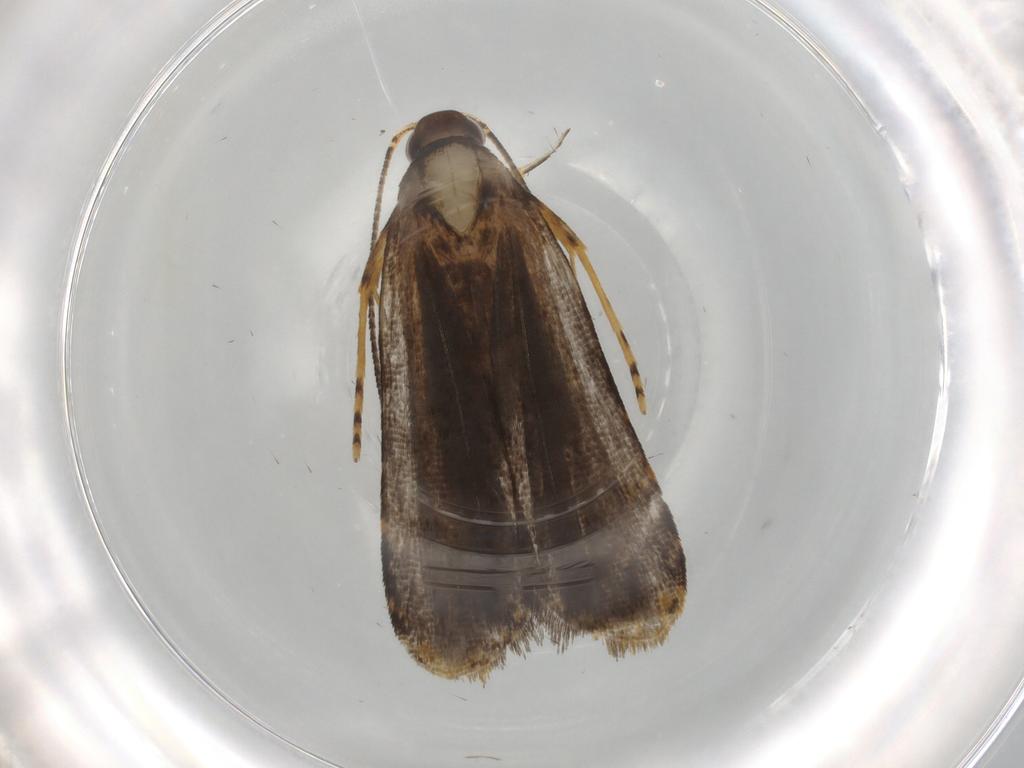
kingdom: Animalia
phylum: Arthropoda
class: Insecta
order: Lepidoptera
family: Cosmopterigidae
